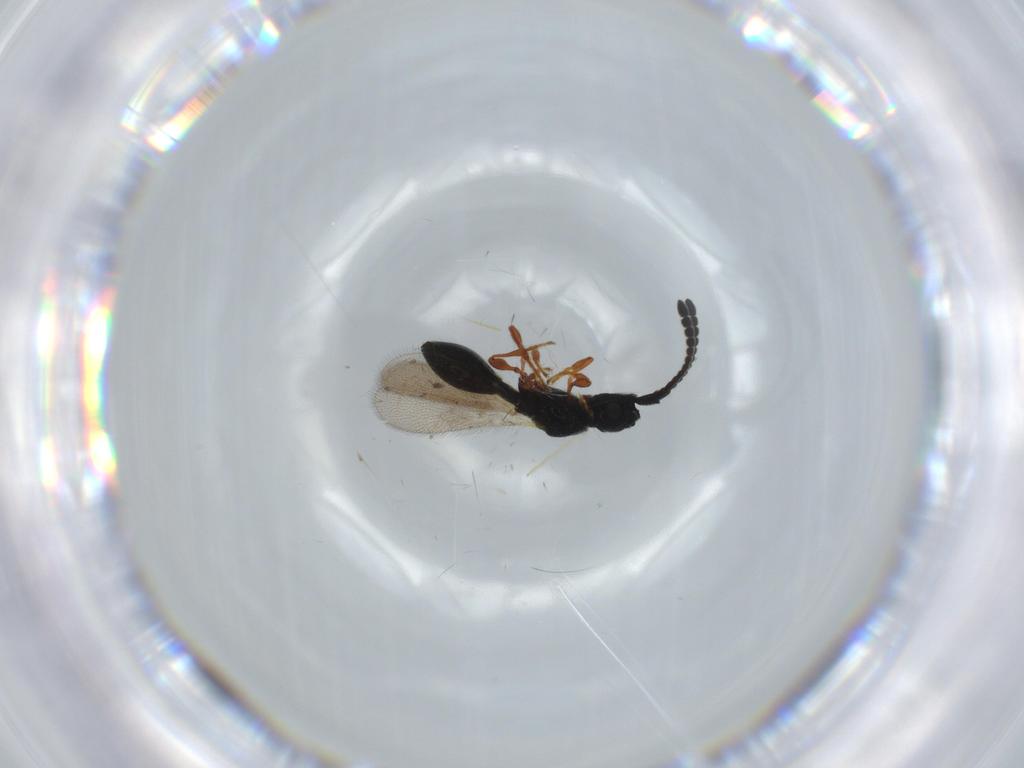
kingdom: Animalia
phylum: Arthropoda
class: Insecta
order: Hymenoptera
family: Diapriidae
